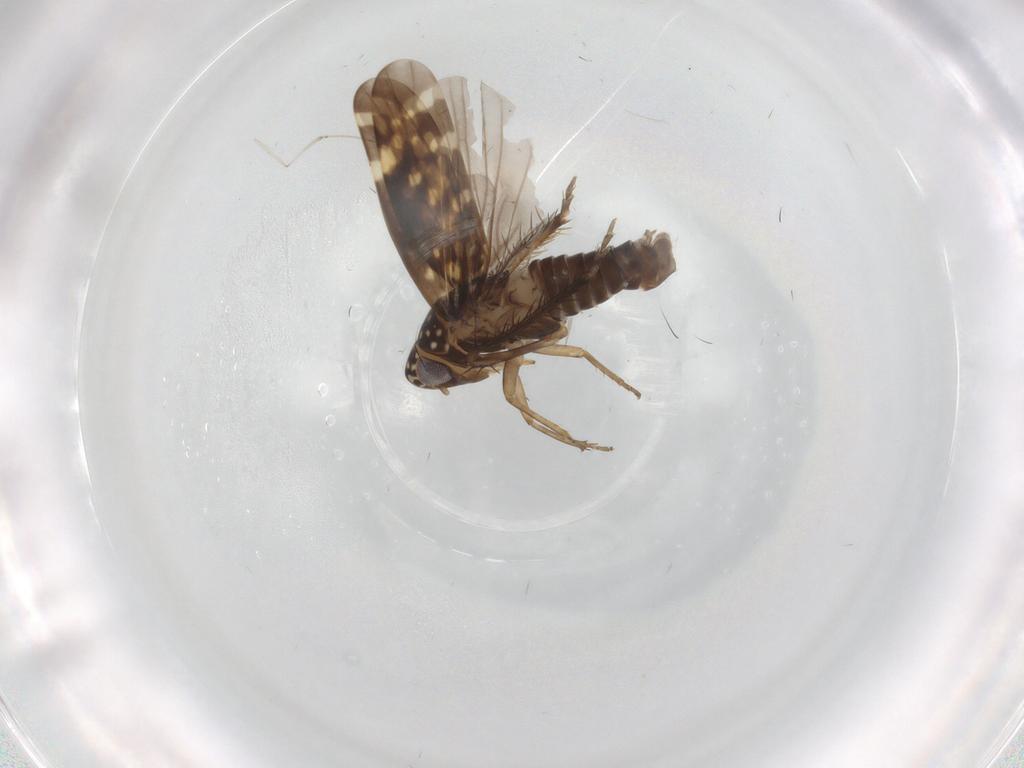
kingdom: Animalia
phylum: Arthropoda
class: Insecta
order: Hemiptera
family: Cicadellidae
